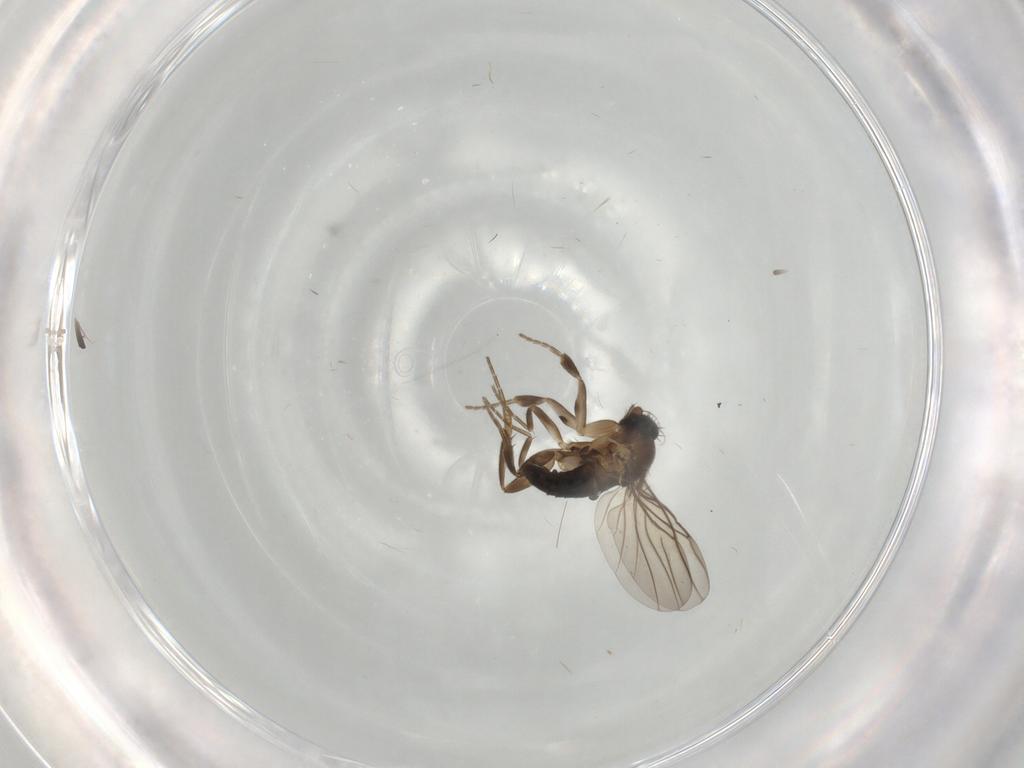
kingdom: Animalia
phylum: Arthropoda
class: Insecta
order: Diptera
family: Phoridae
